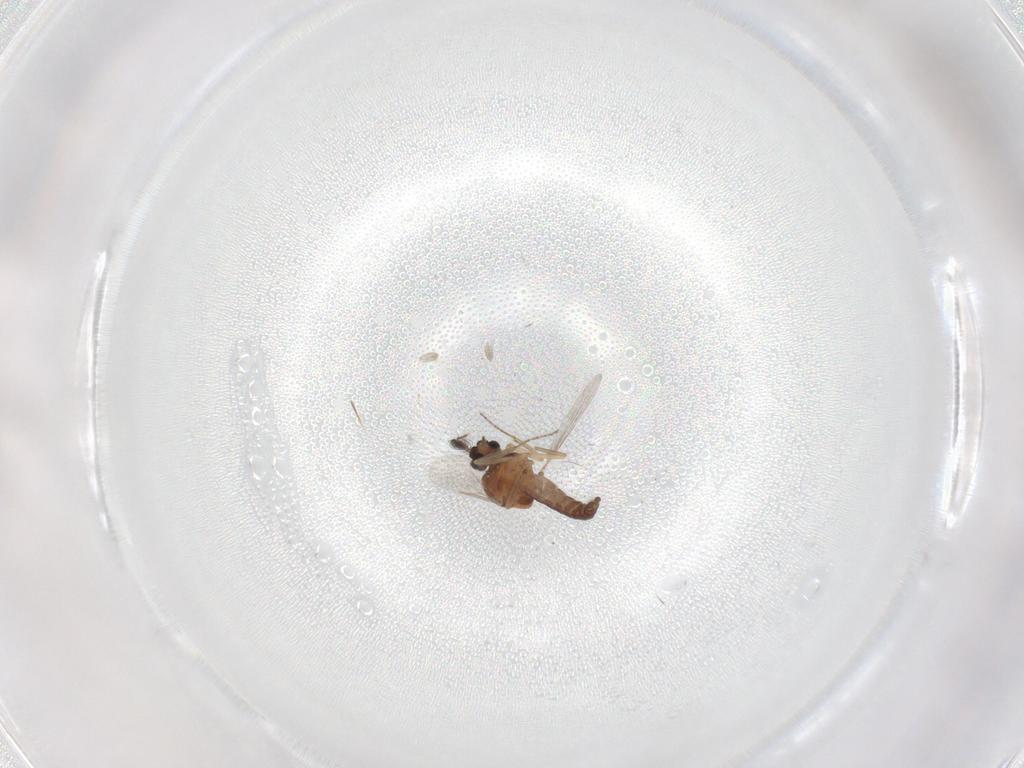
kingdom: Animalia
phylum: Arthropoda
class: Insecta
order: Diptera
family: Ceratopogonidae
